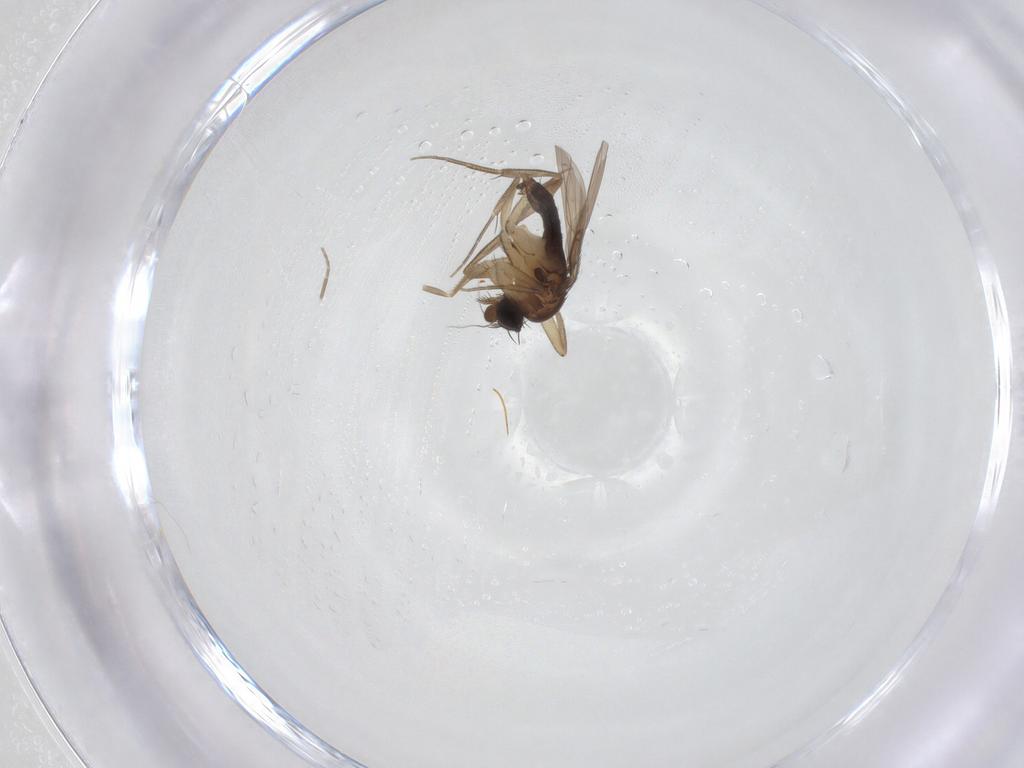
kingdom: Animalia
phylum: Arthropoda
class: Insecta
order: Diptera
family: Phoridae
